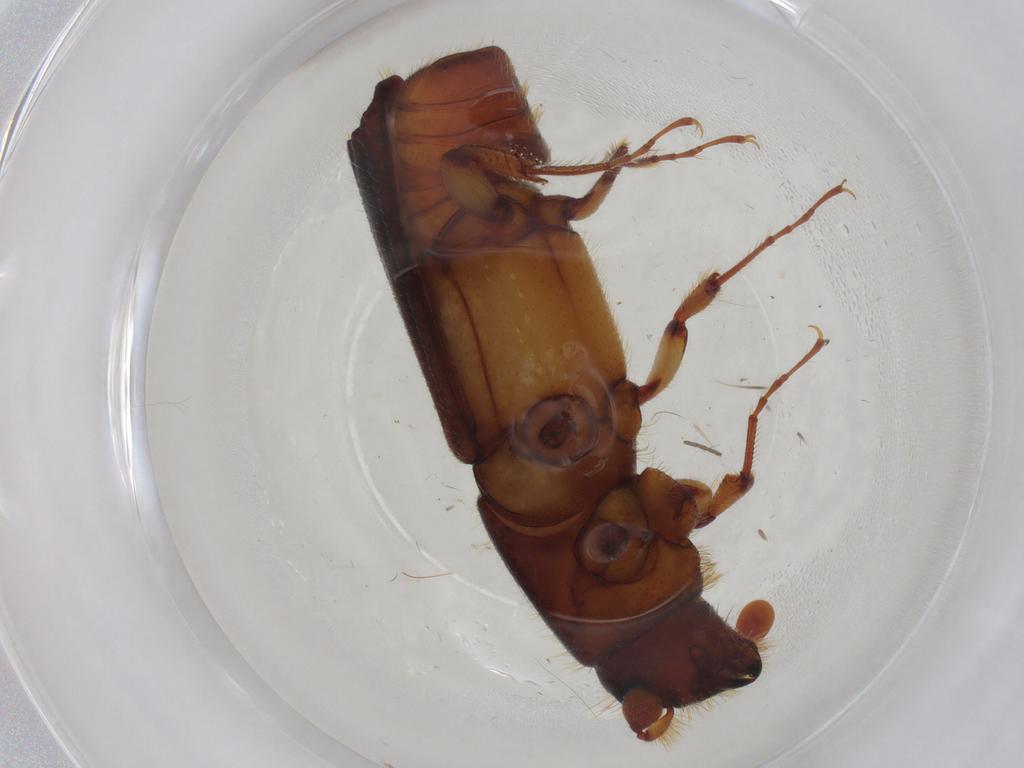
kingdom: Animalia
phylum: Arthropoda
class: Insecta
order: Coleoptera
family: Curculionidae
